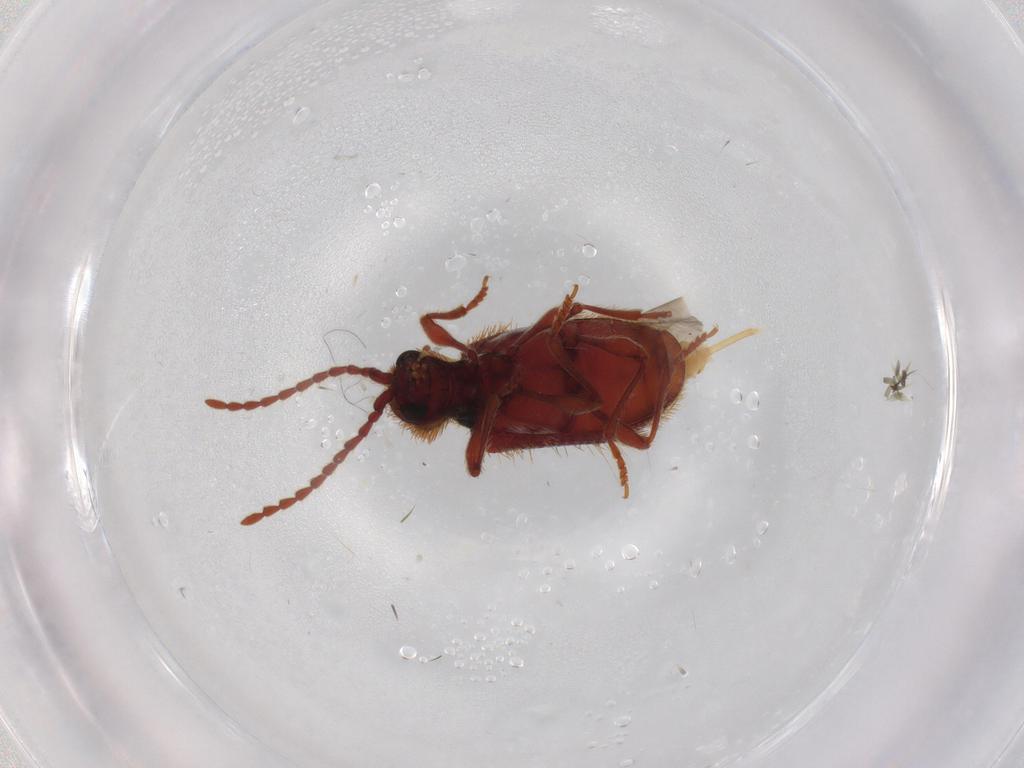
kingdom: Animalia
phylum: Arthropoda
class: Insecta
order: Coleoptera
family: Ptinidae
